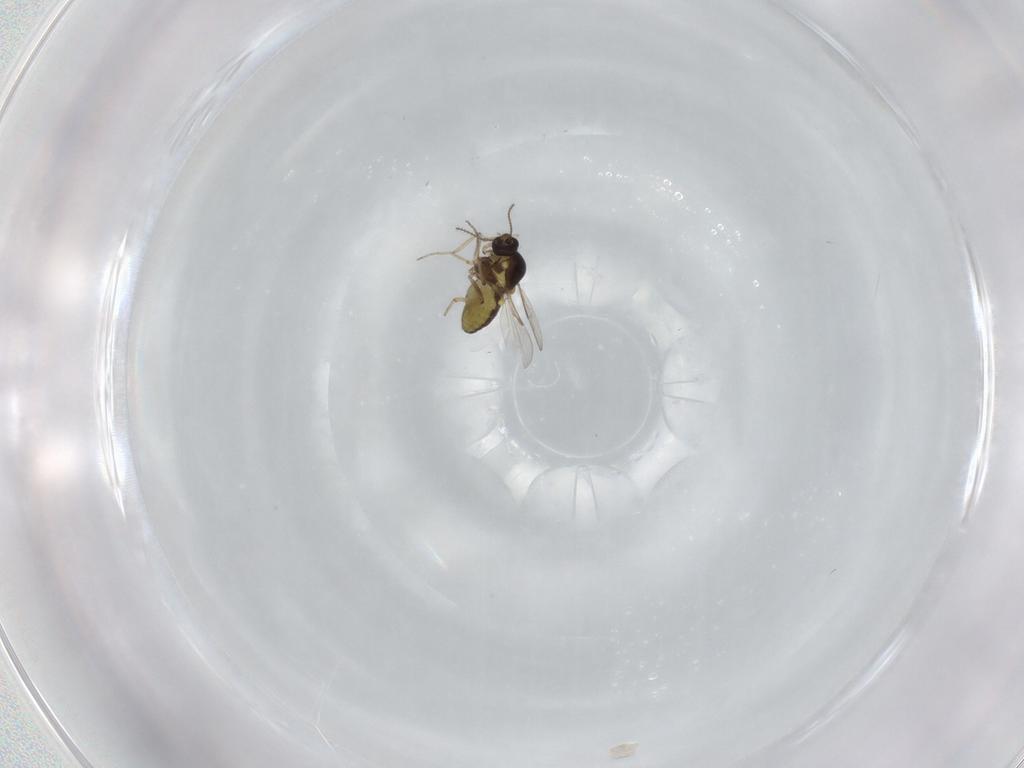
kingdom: Animalia
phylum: Arthropoda
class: Insecta
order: Diptera
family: Ceratopogonidae
